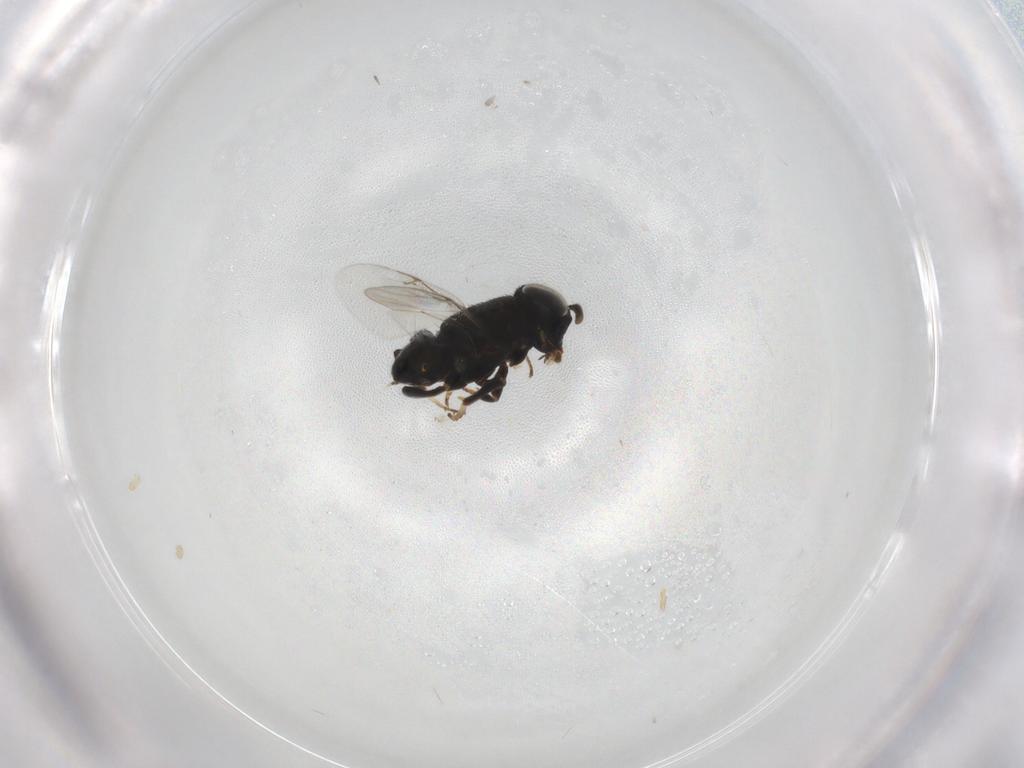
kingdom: Animalia
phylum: Arthropoda
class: Insecta
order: Hymenoptera
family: Encyrtidae
